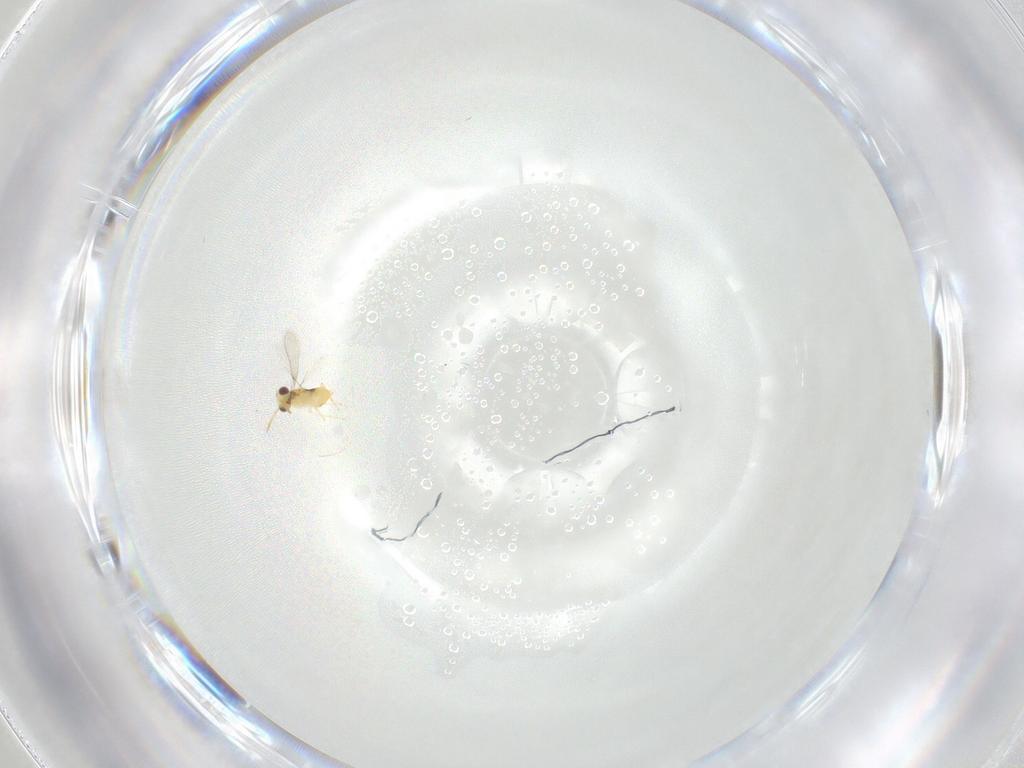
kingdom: Animalia
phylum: Arthropoda
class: Insecta
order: Hymenoptera
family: Aphelinidae
